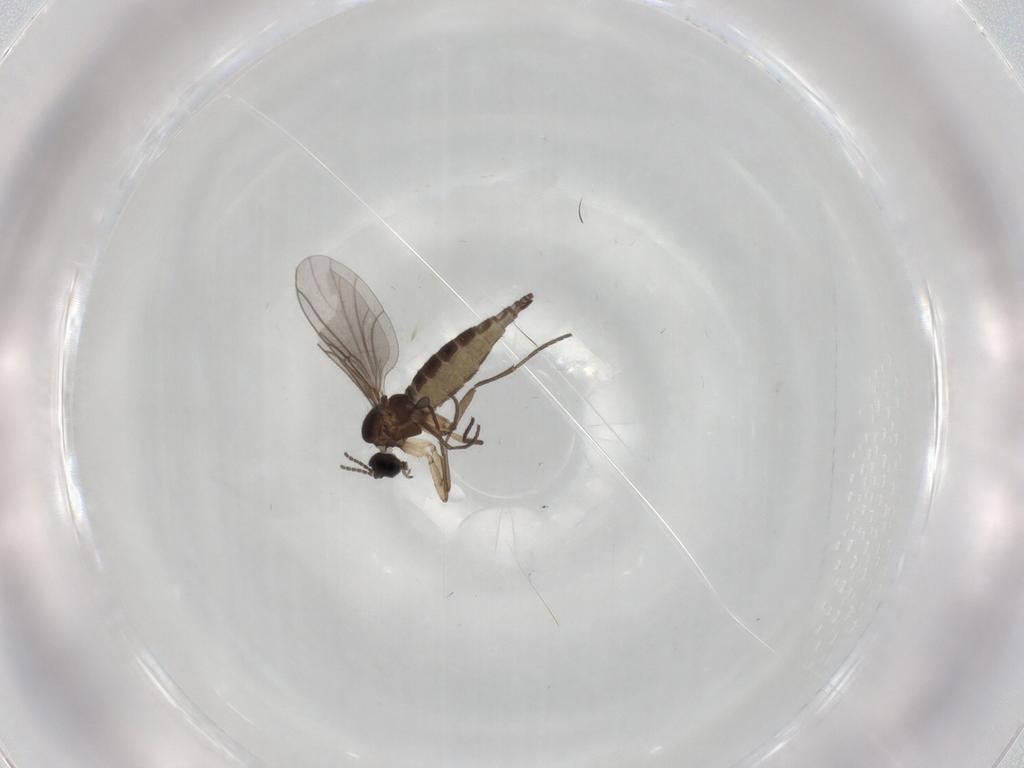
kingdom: Animalia
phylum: Arthropoda
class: Insecta
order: Diptera
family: Sciaridae
